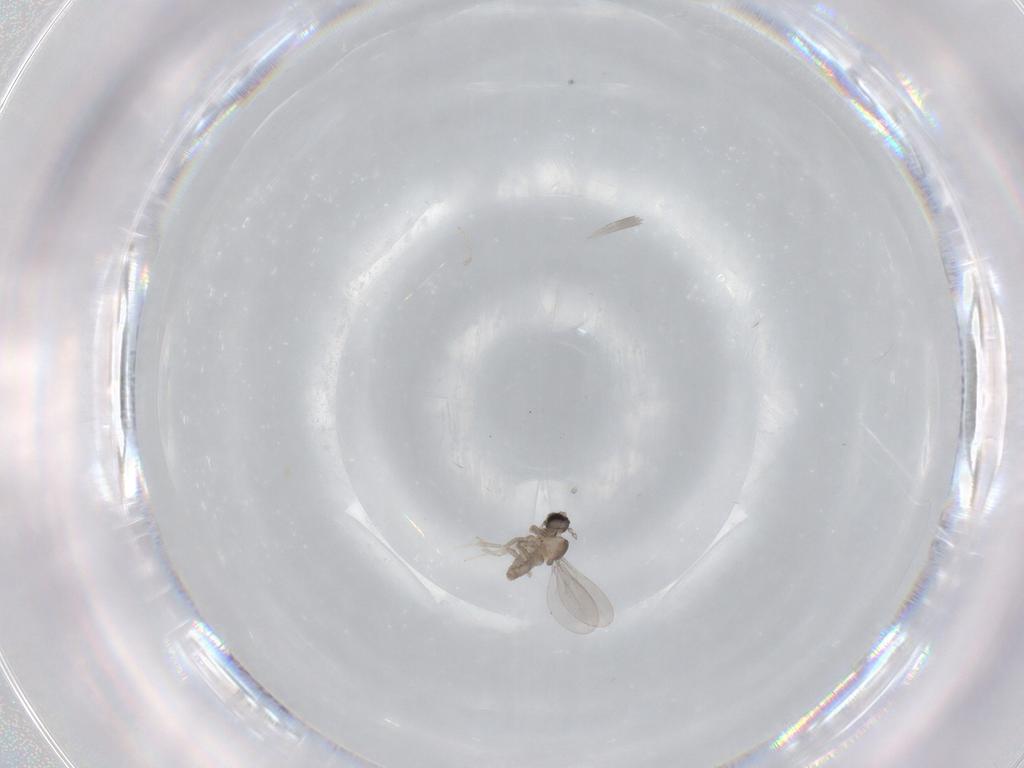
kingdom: Animalia
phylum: Arthropoda
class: Insecta
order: Diptera
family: Cecidomyiidae
